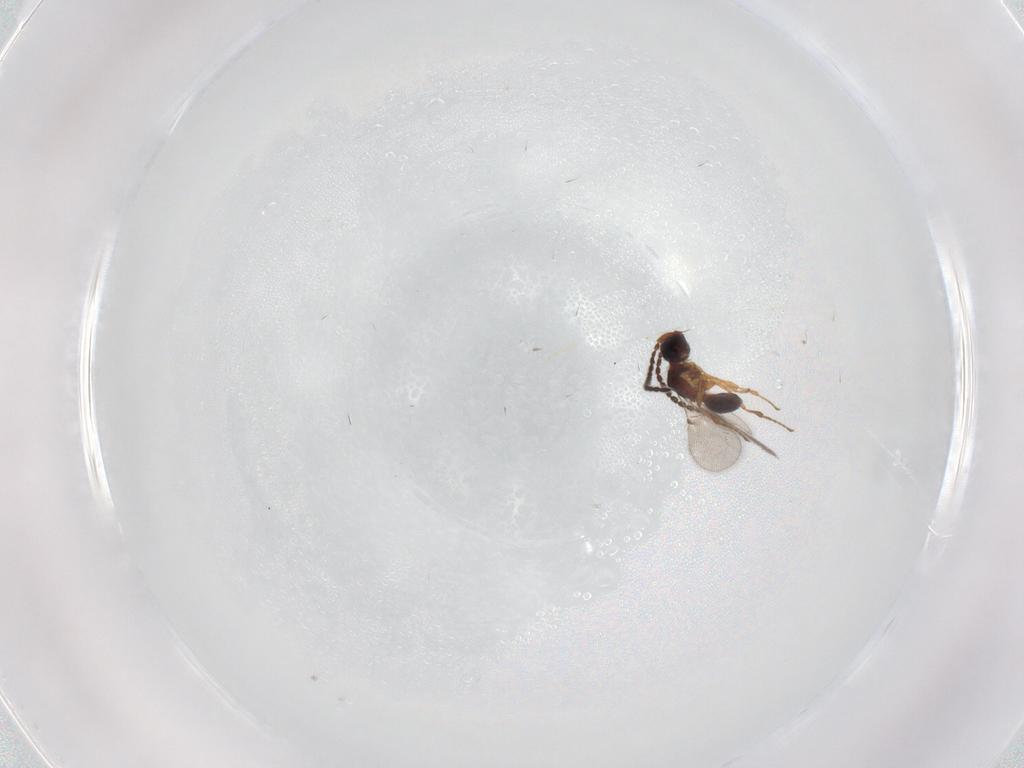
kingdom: Animalia
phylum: Arthropoda
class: Insecta
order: Hymenoptera
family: Diapriidae
